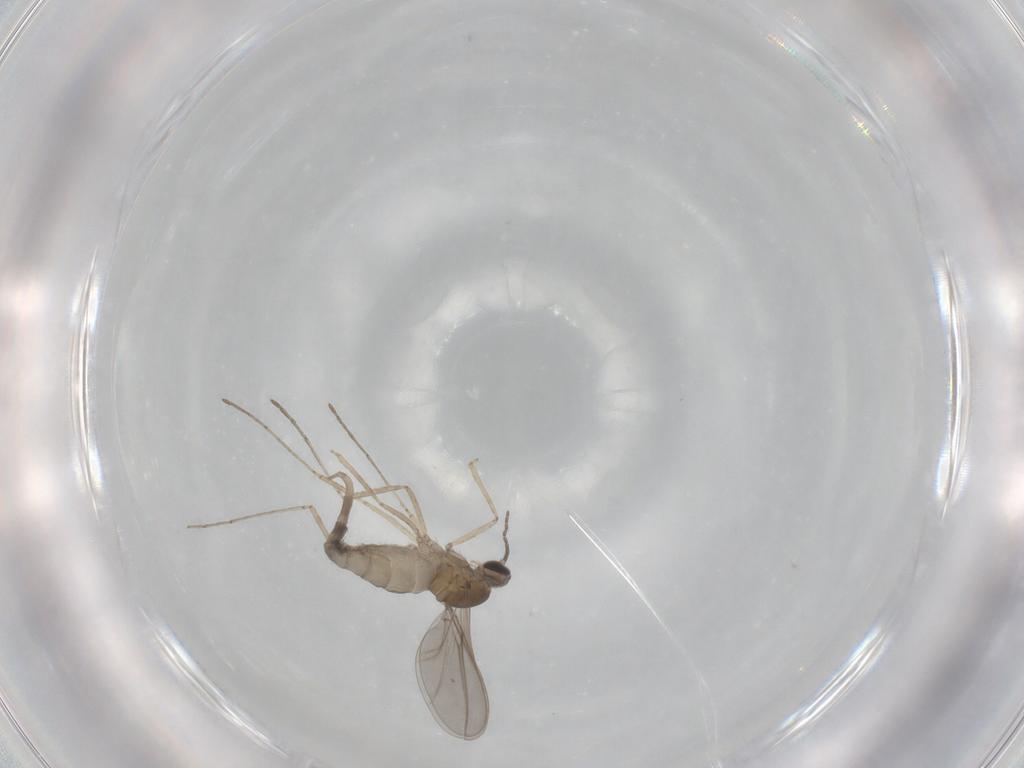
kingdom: Animalia
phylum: Arthropoda
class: Insecta
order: Diptera
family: Cecidomyiidae
